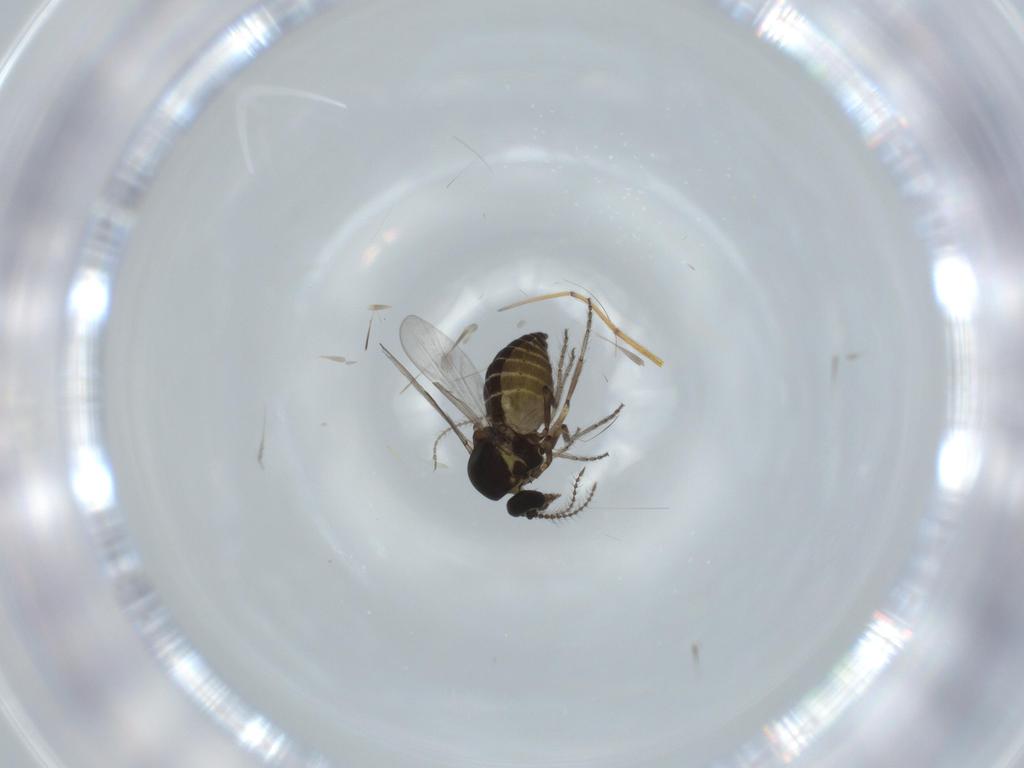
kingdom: Animalia
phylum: Arthropoda
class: Insecta
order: Diptera
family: Ceratopogonidae
